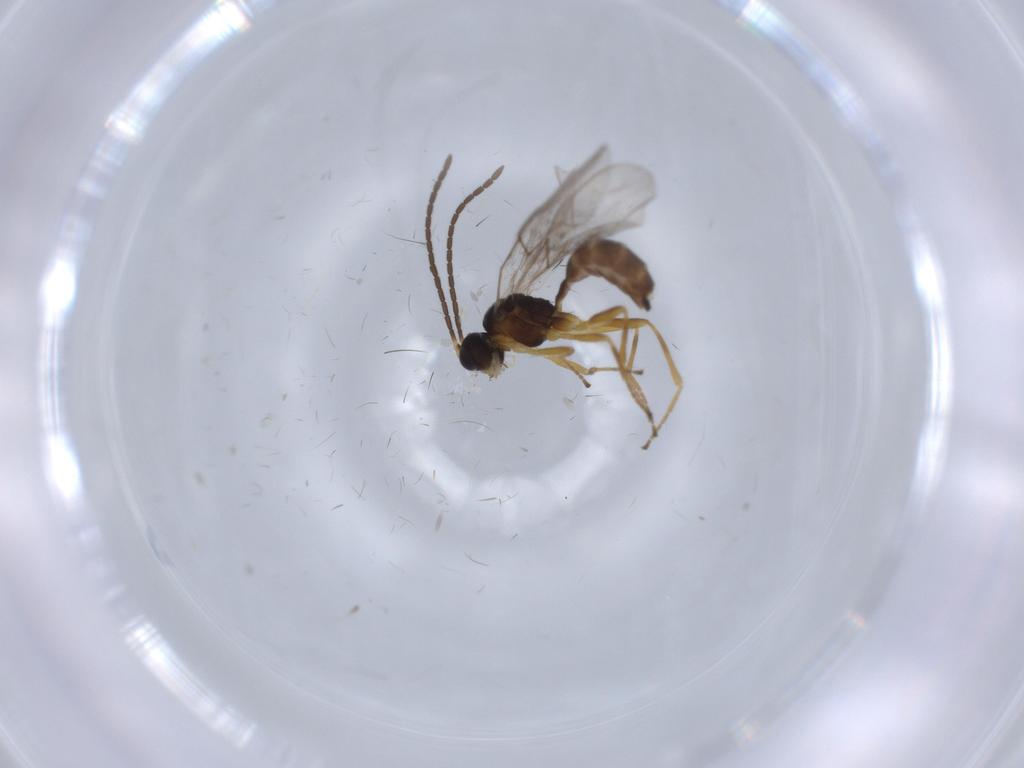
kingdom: Animalia
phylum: Arthropoda
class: Insecta
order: Hymenoptera
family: Braconidae
